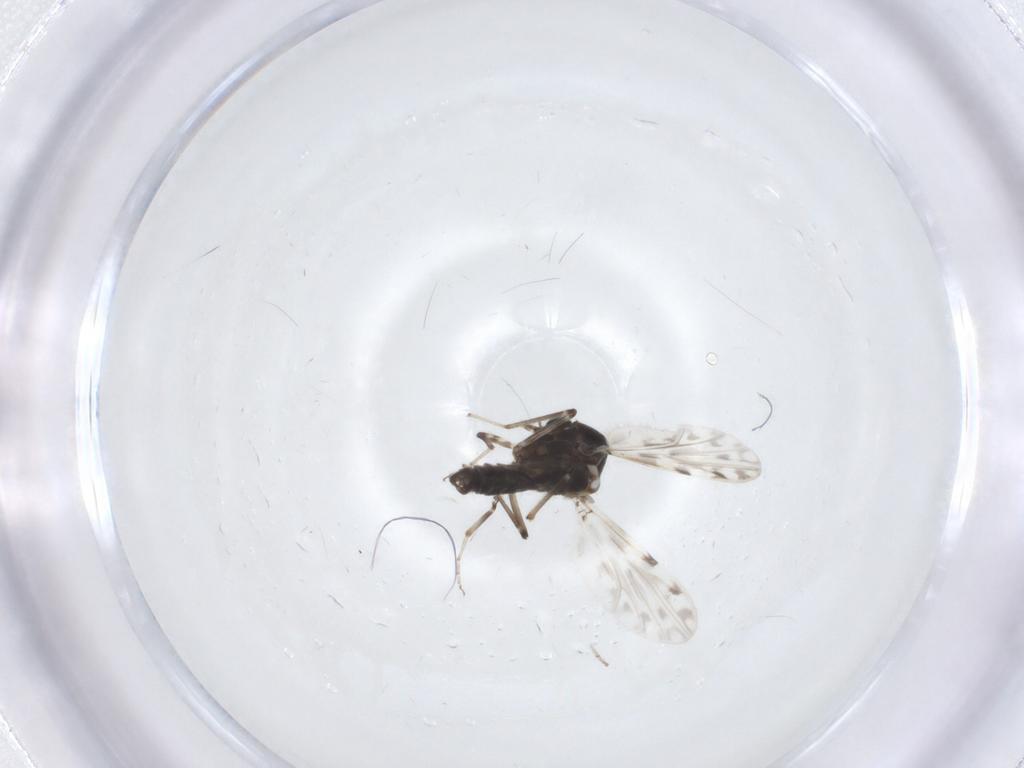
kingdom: Animalia
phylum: Arthropoda
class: Insecta
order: Diptera
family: Ceratopogonidae
